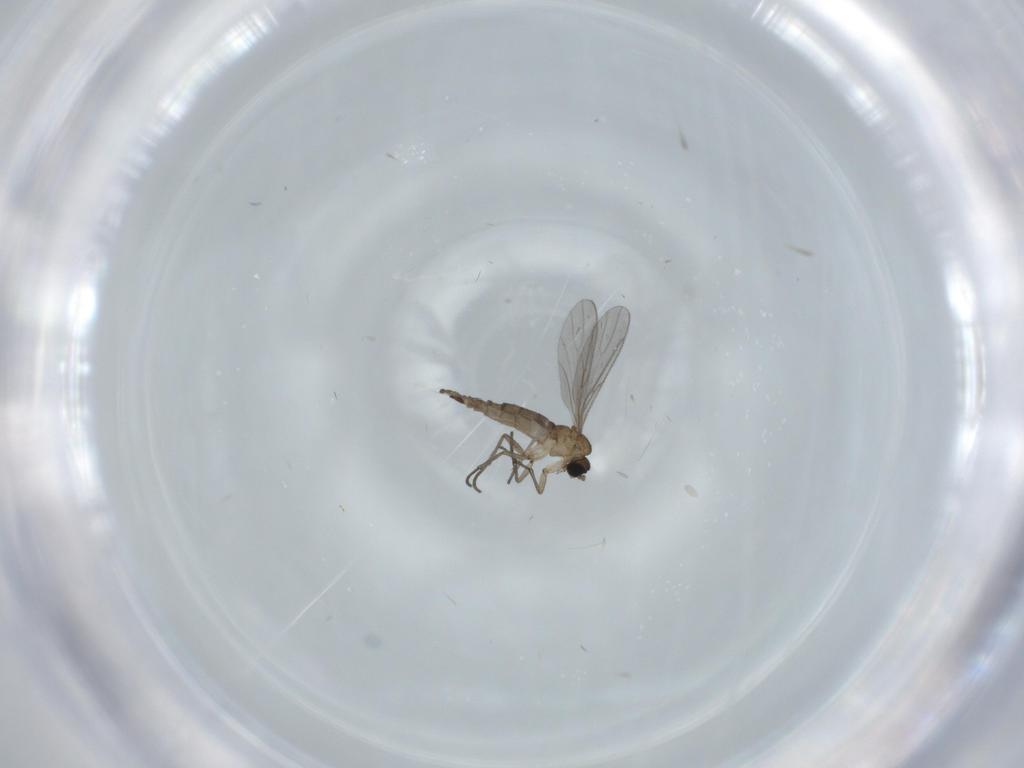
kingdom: Animalia
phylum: Arthropoda
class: Insecta
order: Diptera
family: Sciaridae
